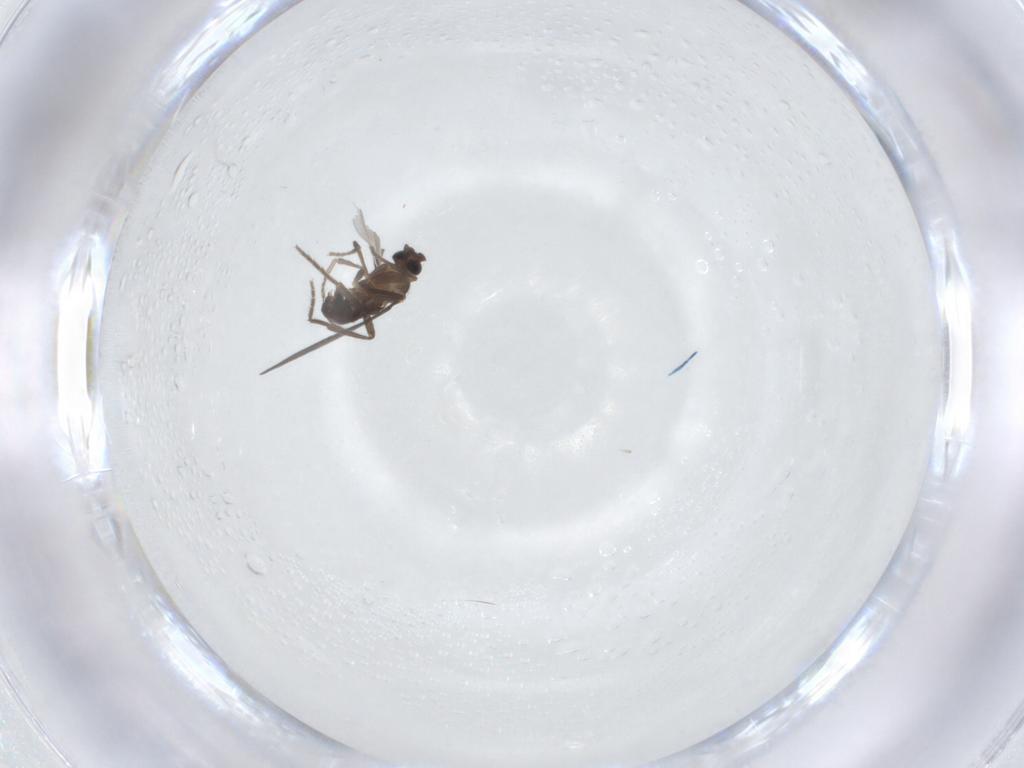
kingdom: Animalia
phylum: Arthropoda
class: Insecta
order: Diptera
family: Phoridae
